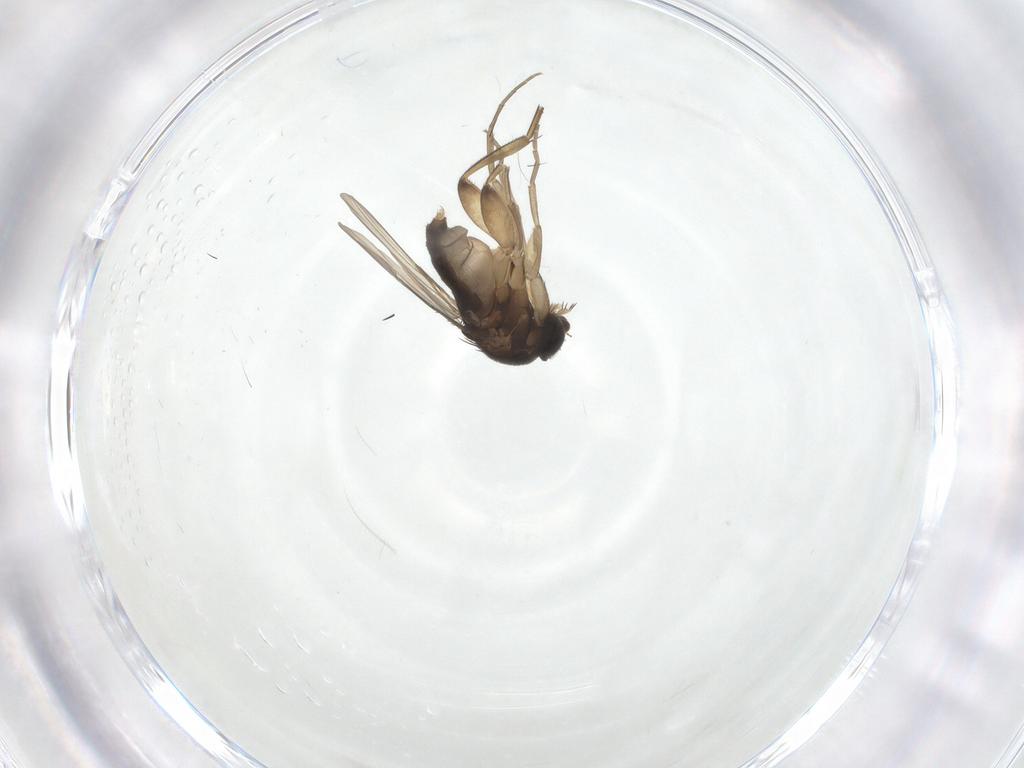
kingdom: Animalia
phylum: Arthropoda
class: Insecta
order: Diptera
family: Phoridae
